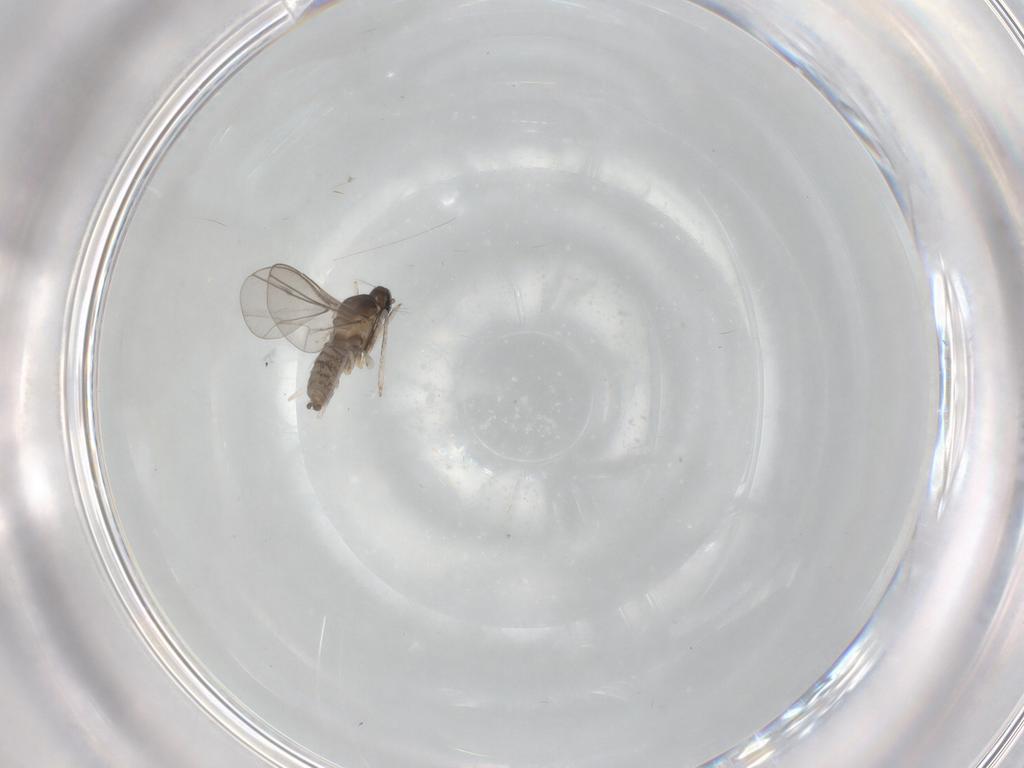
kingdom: Animalia
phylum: Arthropoda
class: Insecta
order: Diptera
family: Cecidomyiidae
